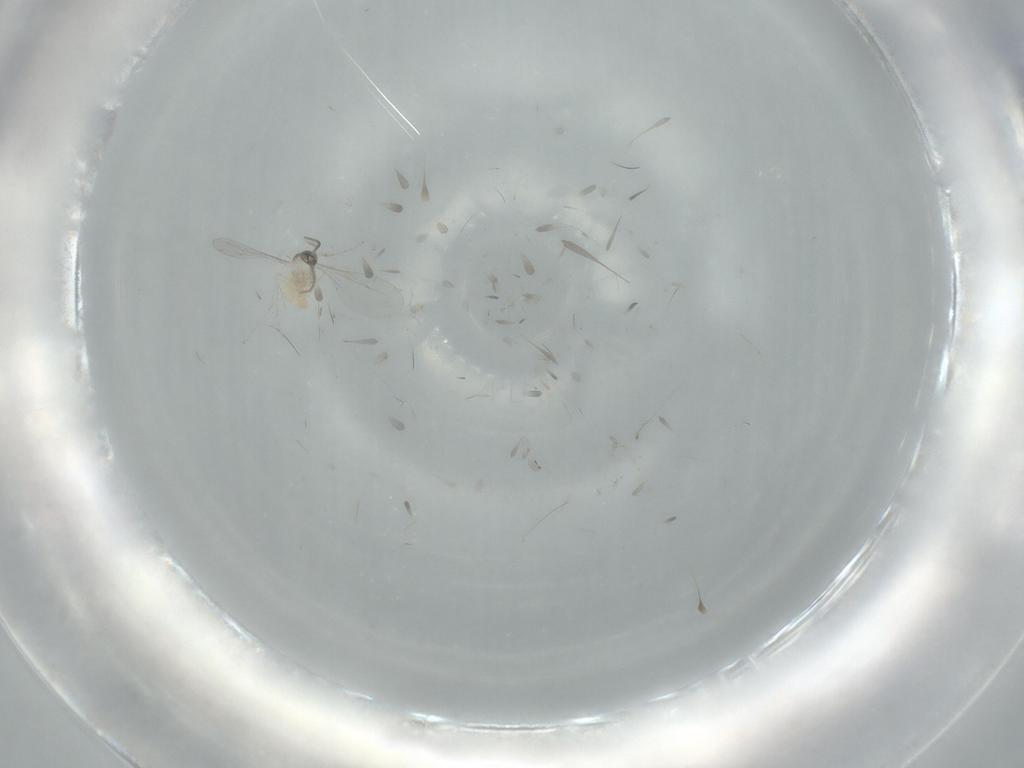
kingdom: Animalia
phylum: Arthropoda
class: Insecta
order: Diptera
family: Cecidomyiidae
